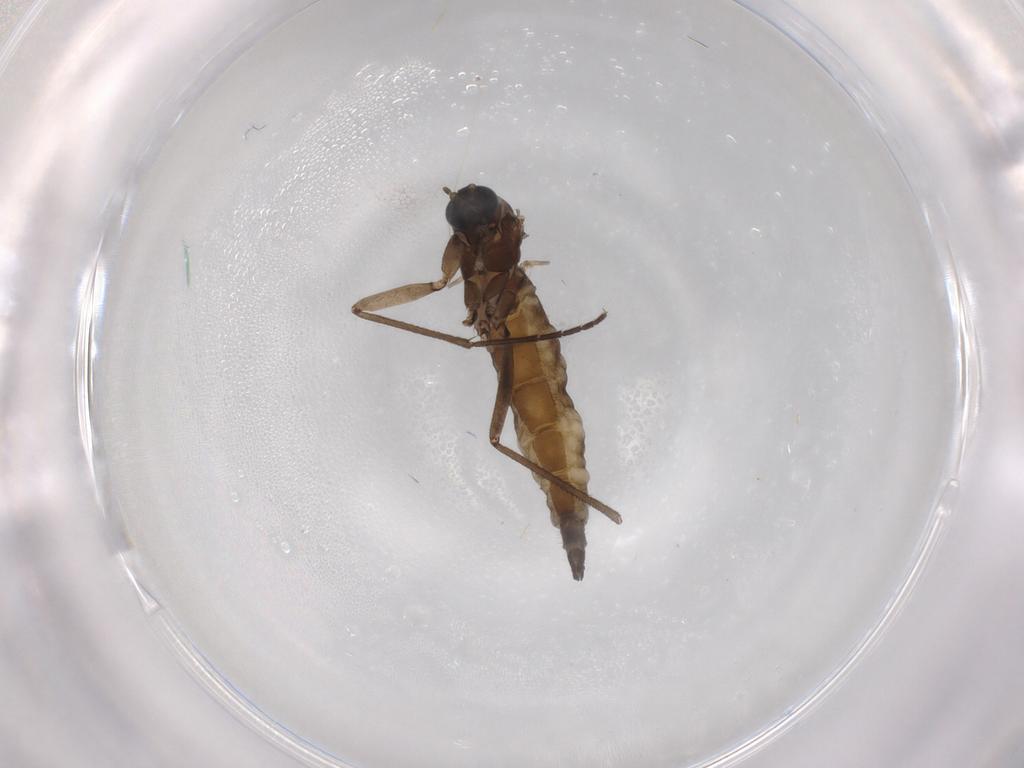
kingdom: Animalia
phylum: Arthropoda
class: Insecta
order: Diptera
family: Sciaridae
